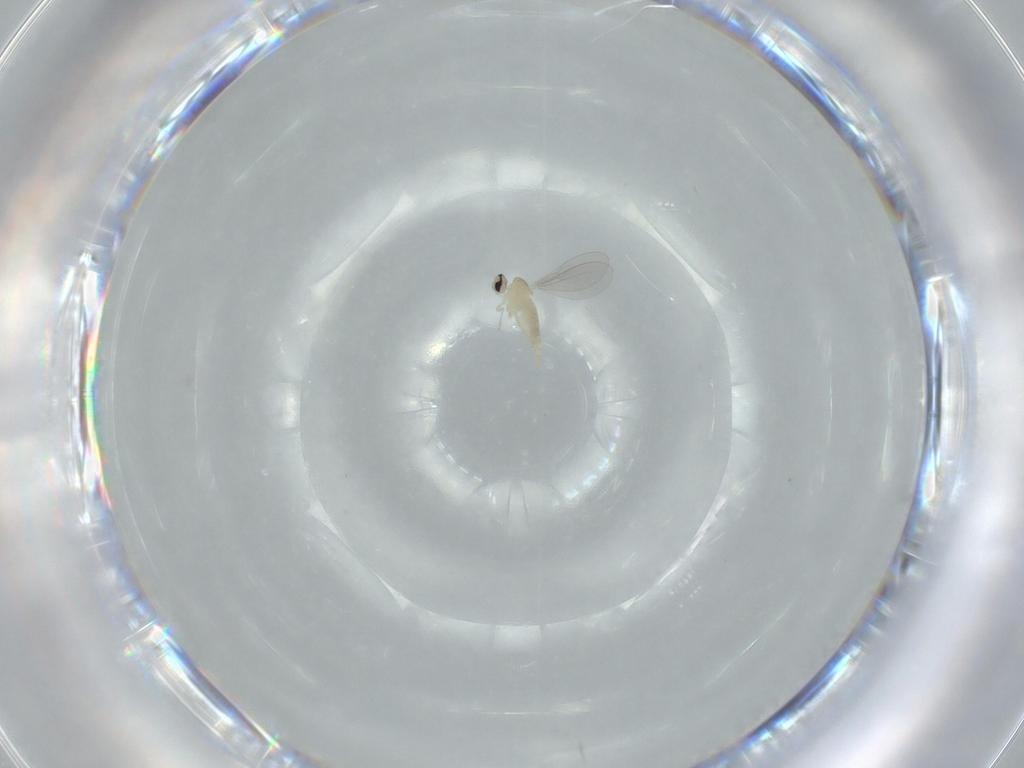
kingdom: Animalia
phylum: Arthropoda
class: Insecta
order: Diptera
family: Cecidomyiidae
